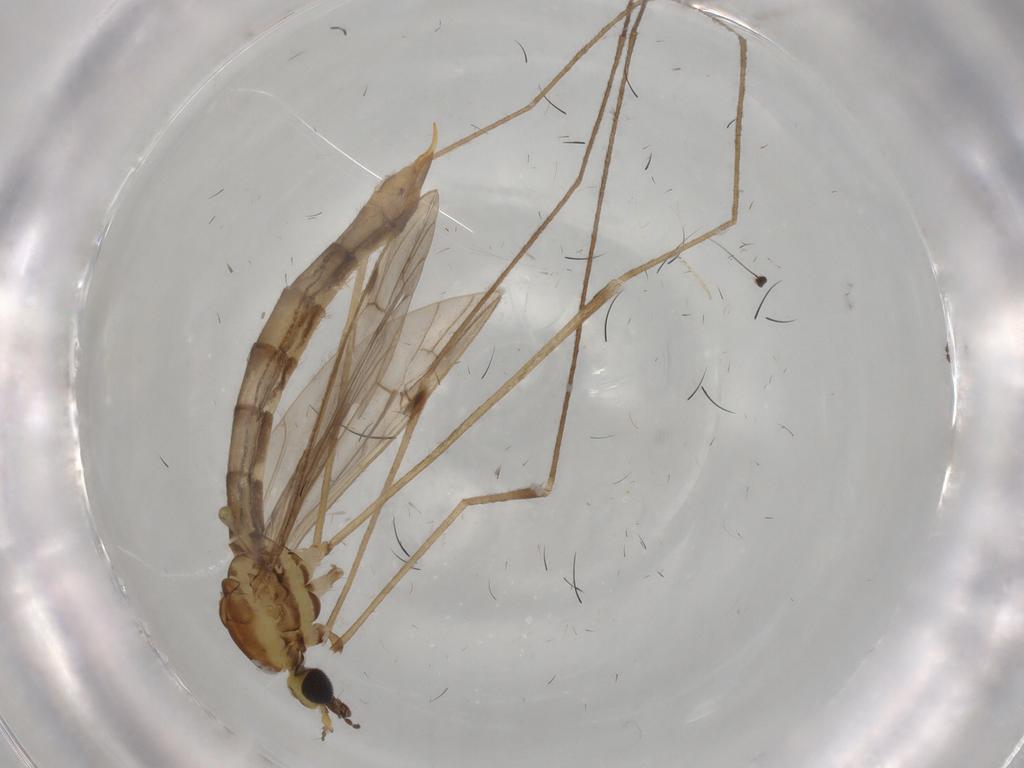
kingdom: Animalia
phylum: Arthropoda
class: Insecta
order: Diptera
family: Psychodidae
